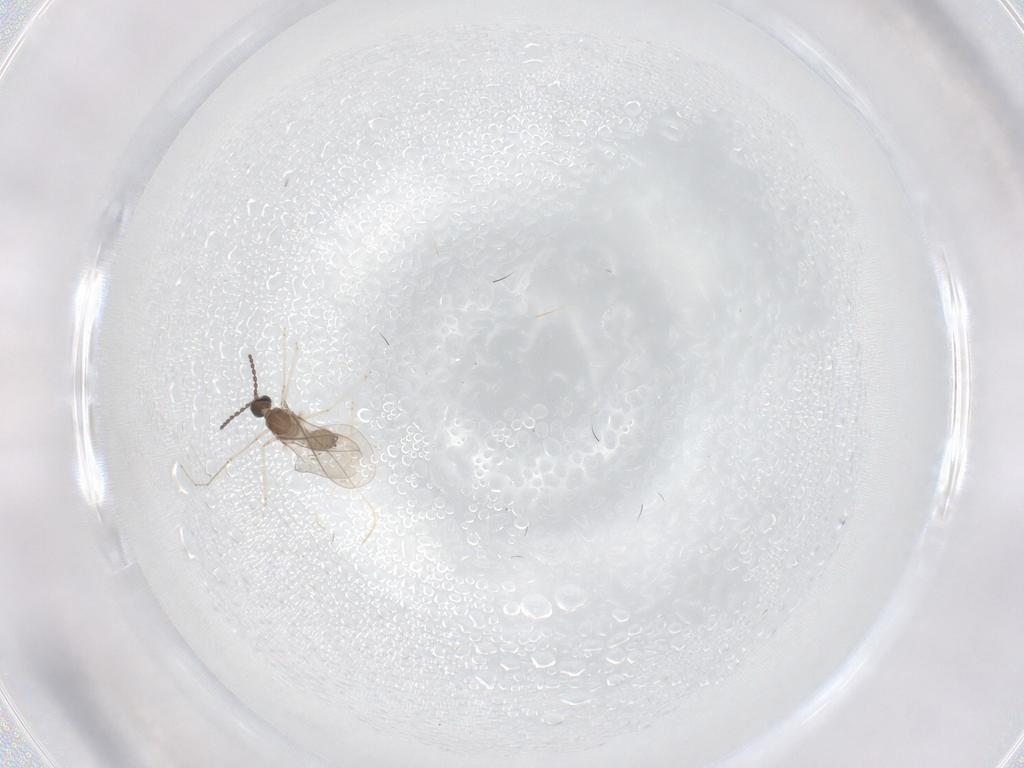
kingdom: Animalia
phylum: Arthropoda
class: Insecta
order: Diptera
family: Cecidomyiidae
